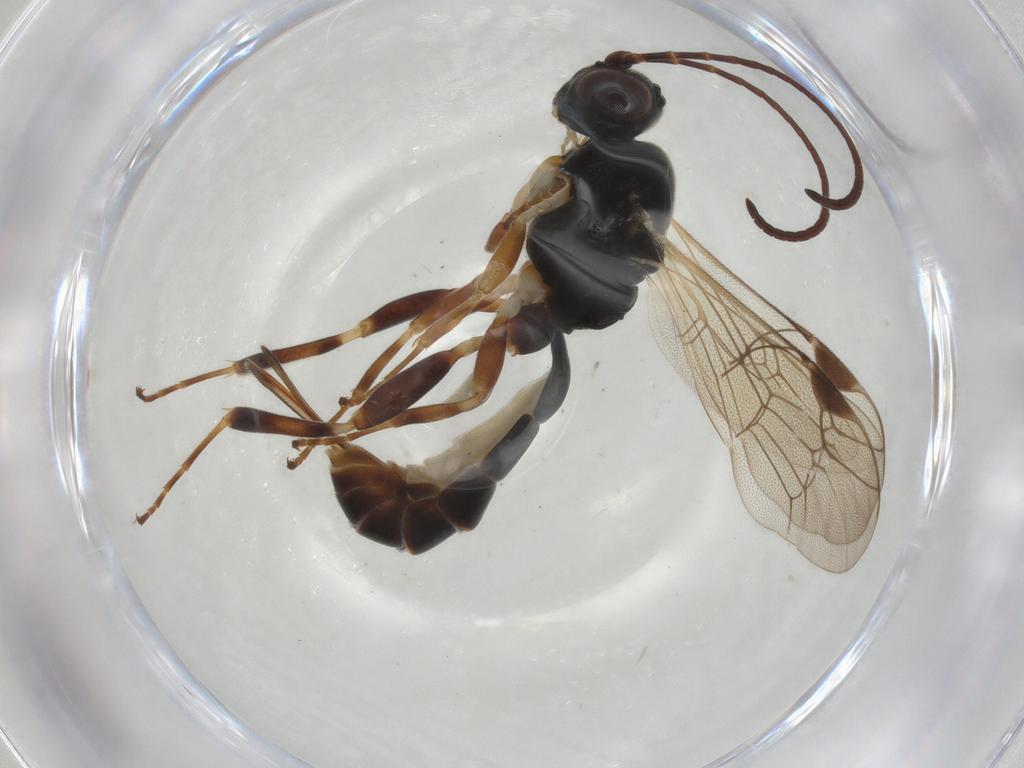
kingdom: Animalia
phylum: Arthropoda
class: Insecta
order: Hymenoptera
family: Ichneumonidae
